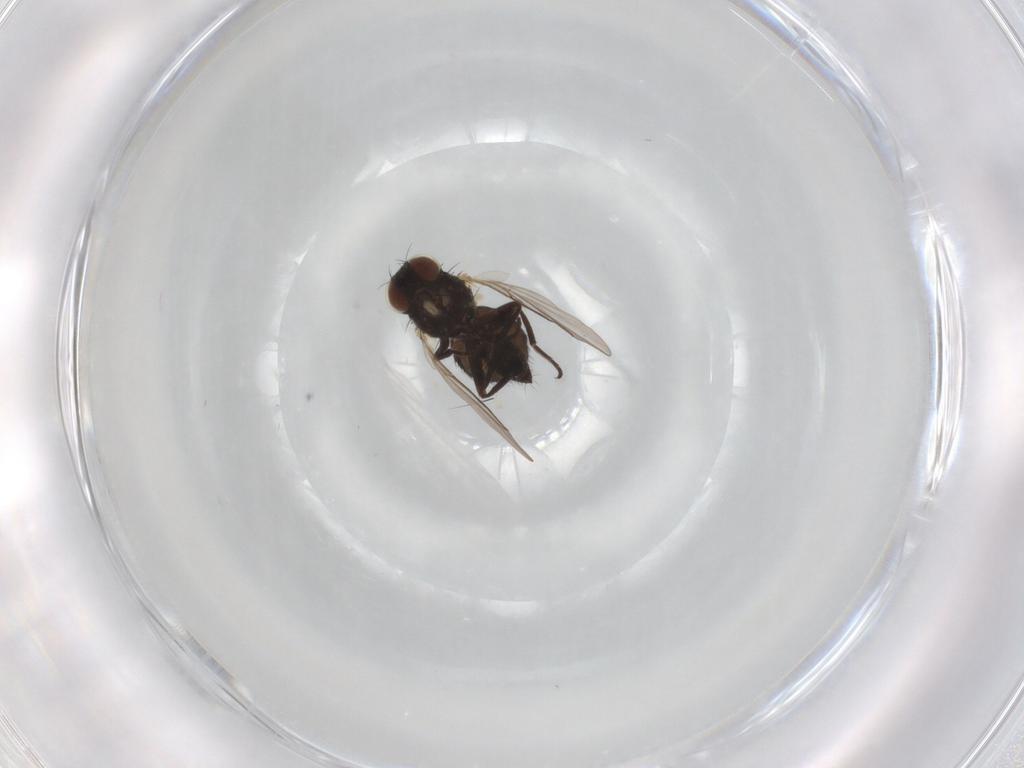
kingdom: Animalia
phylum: Arthropoda
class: Insecta
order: Diptera
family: Cecidomyiidae
